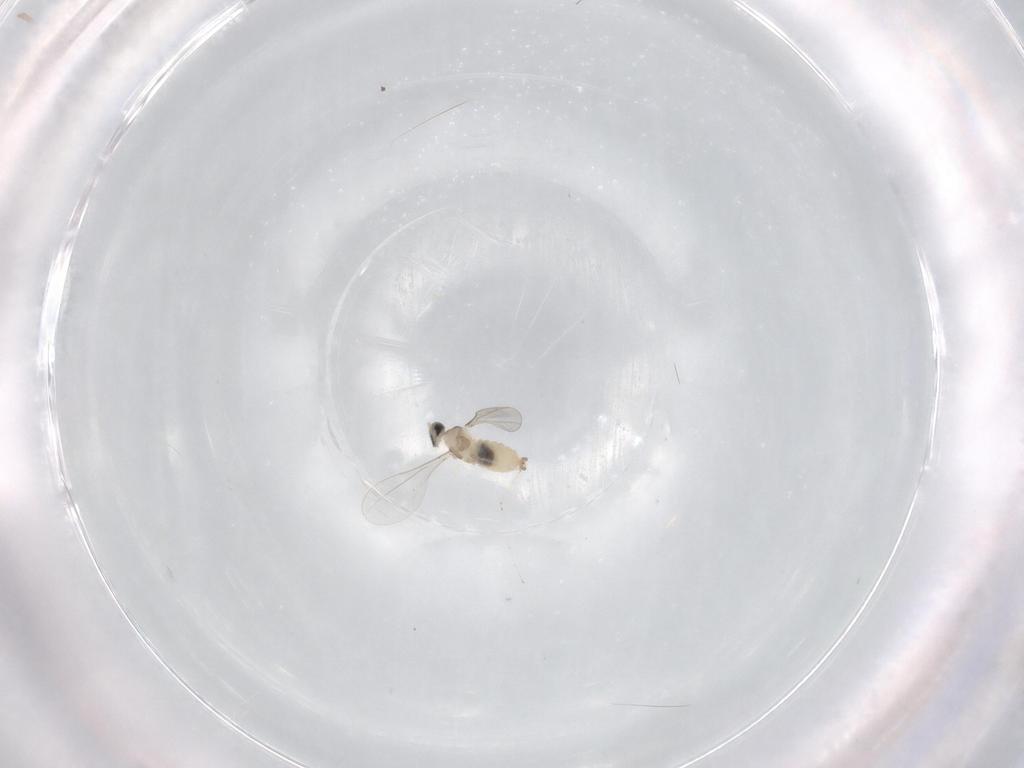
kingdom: Animalia
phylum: Arthropoda
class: Insecta
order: Diptera
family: Cecidomyiidae
